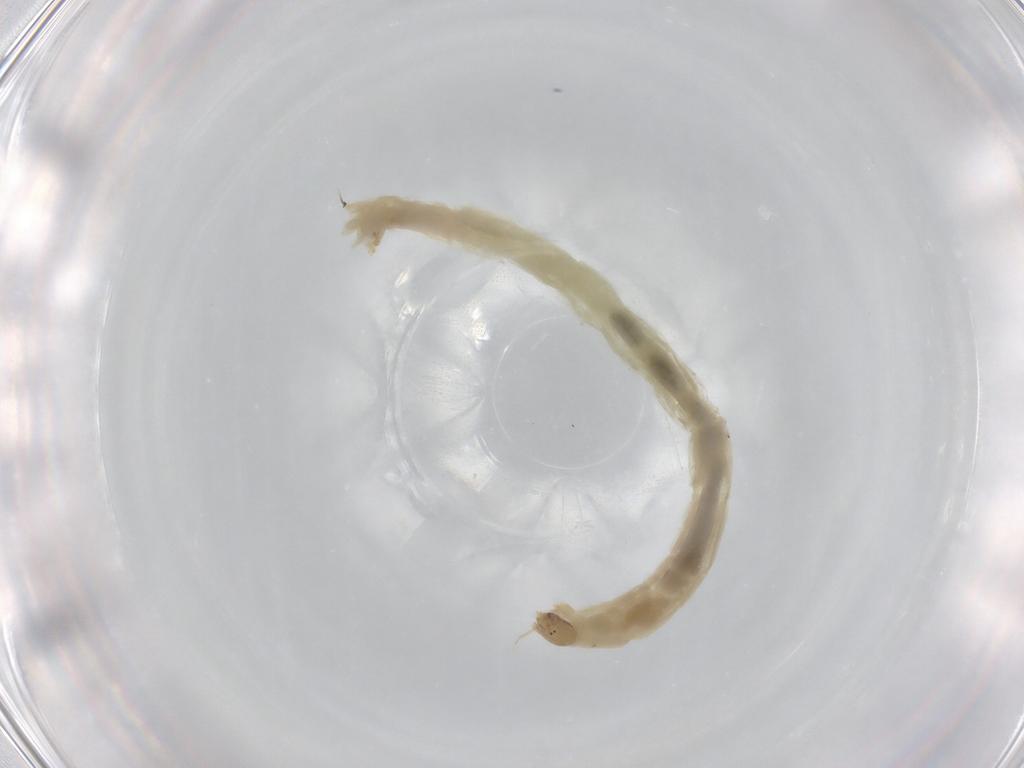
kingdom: Animalia
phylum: Arthropoda
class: Insecta
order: Diptera
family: Chironomidae
